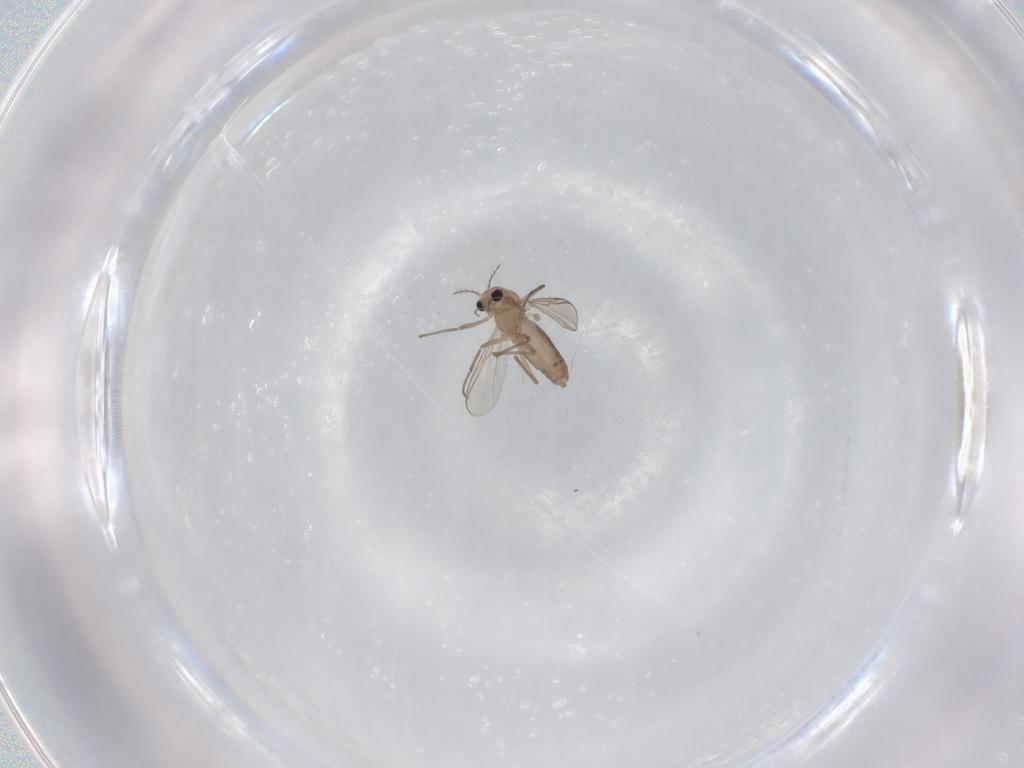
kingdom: Animalia
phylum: Arthropoda
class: Insecta
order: Diptera
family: Chironomidae
